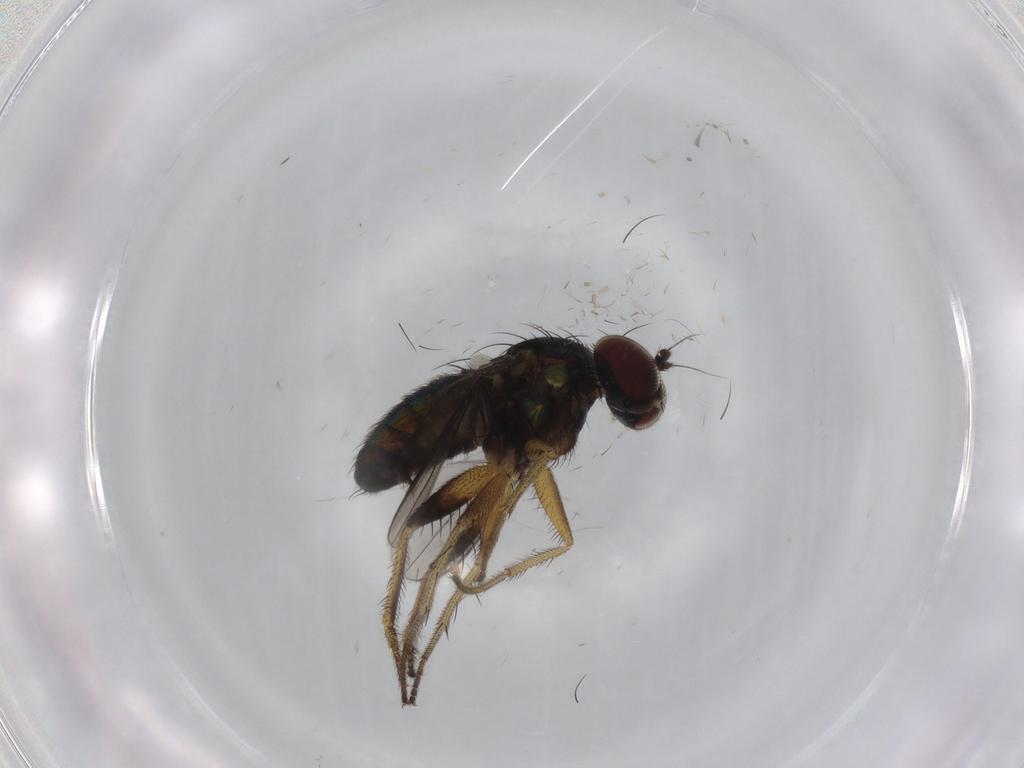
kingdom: Animalia
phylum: Arthropoda
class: Insecta
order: Diptera
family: Dolichopodidae
